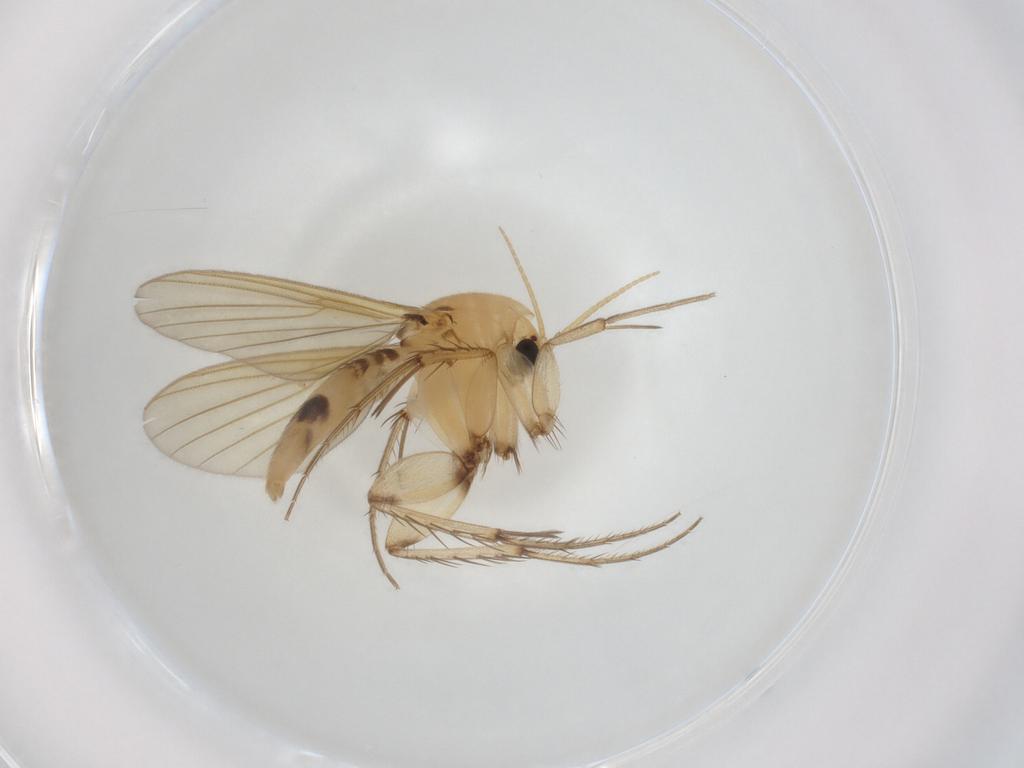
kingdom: Animalia
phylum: Arthropoda
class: Insecta
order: Diptera
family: Mycetophilidae
